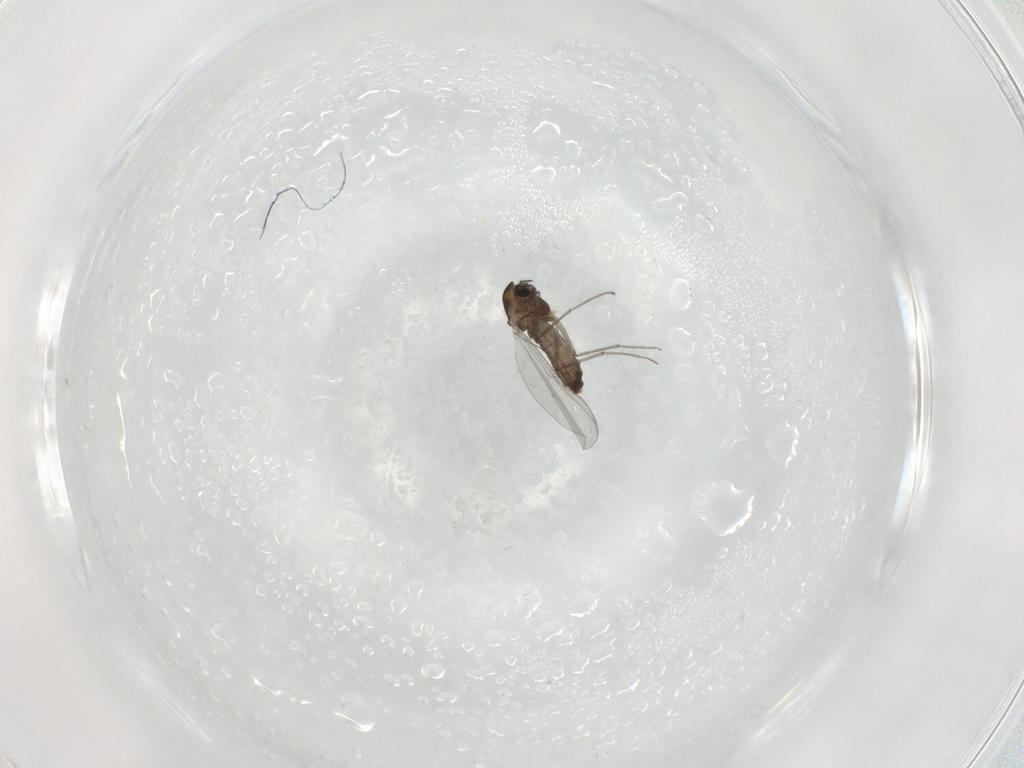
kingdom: Animalia
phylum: Arthropoda
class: Insecta
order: Diptera
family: Chironomidae
